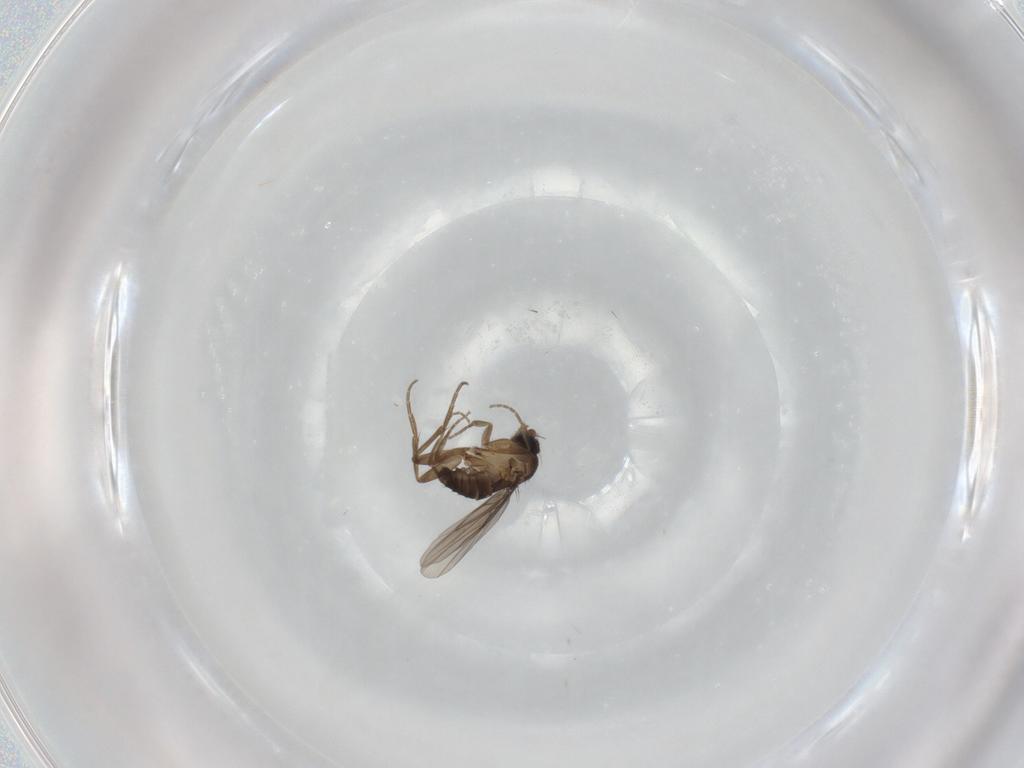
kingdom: Animalia
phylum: Arthropoda
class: Insecta
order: Diptera
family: Phoridae
